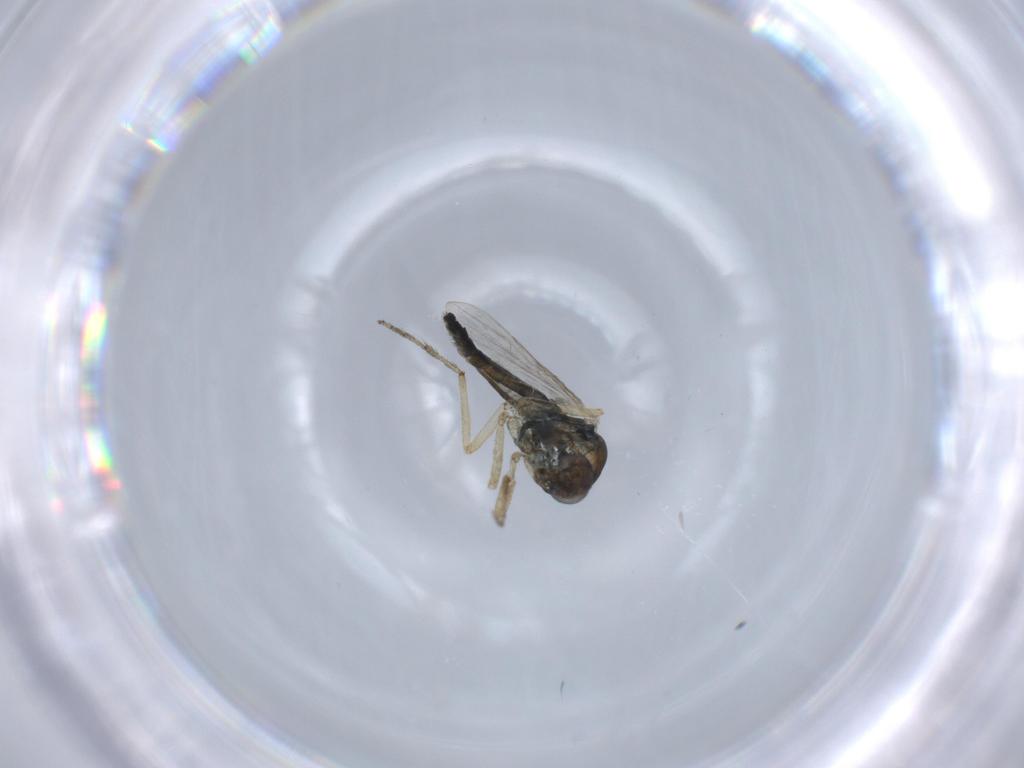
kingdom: Animalia
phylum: Arthropoda
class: Insecta
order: Diptera
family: Ceratopogonidae
